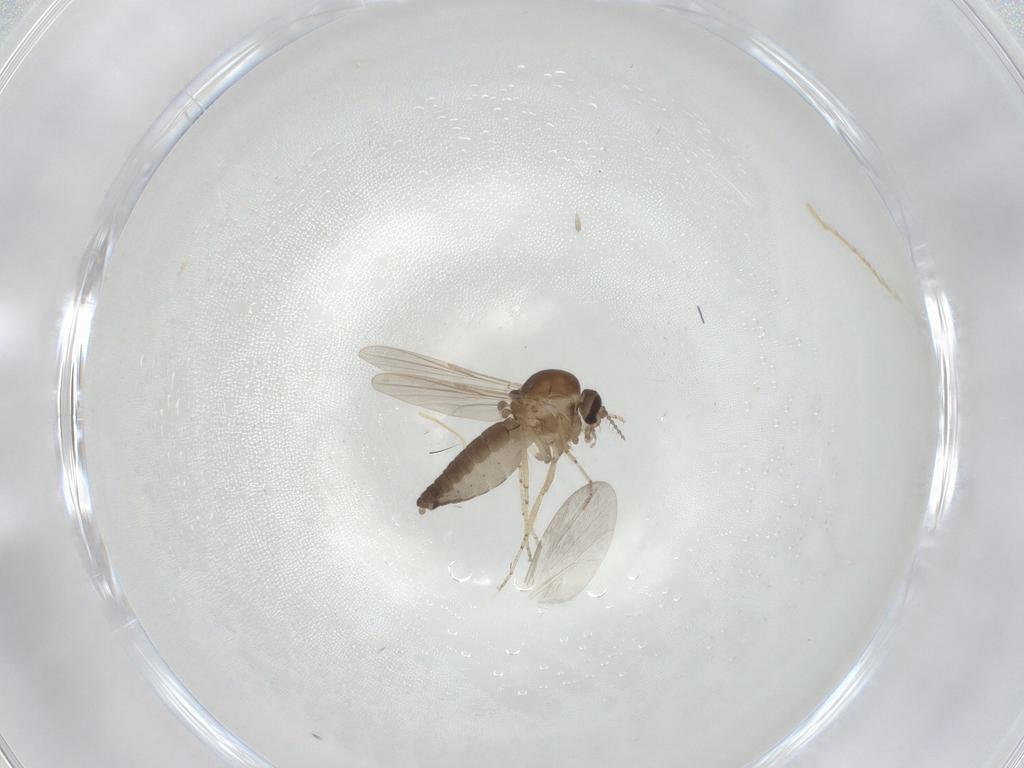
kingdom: Animalia
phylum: Arthropoda
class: Insecta
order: Diptera
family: Ceratopogonidae
